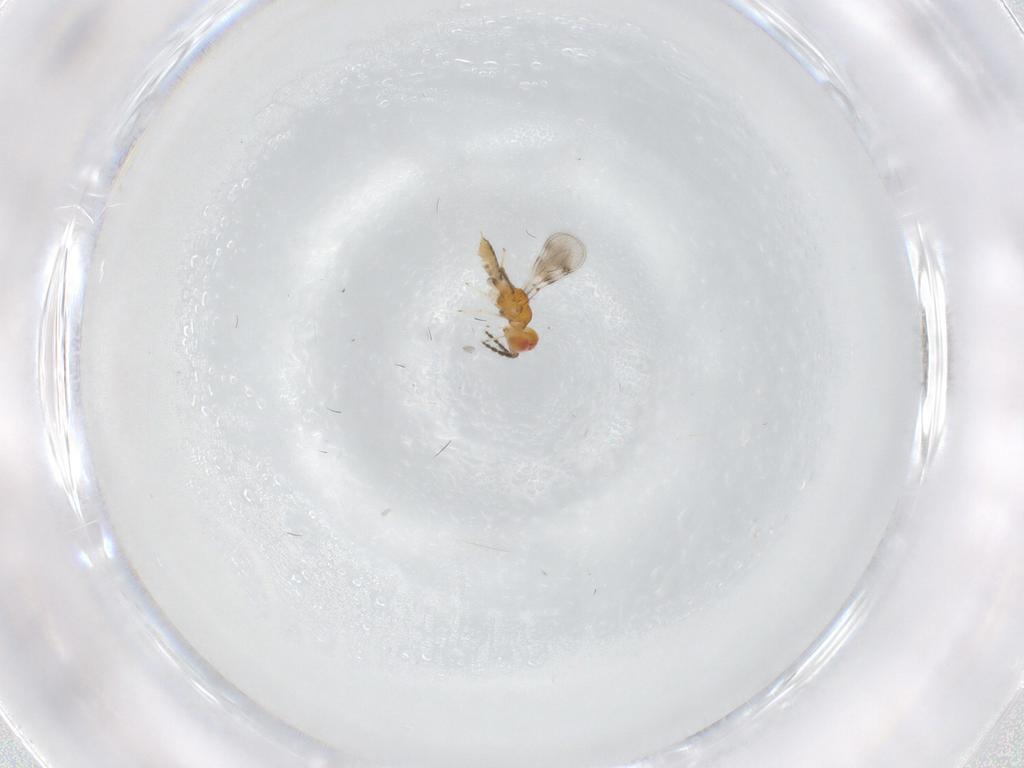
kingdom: Animalia
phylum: Arthropoda
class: Insecta
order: Hymenoptera
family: Eulophidae
